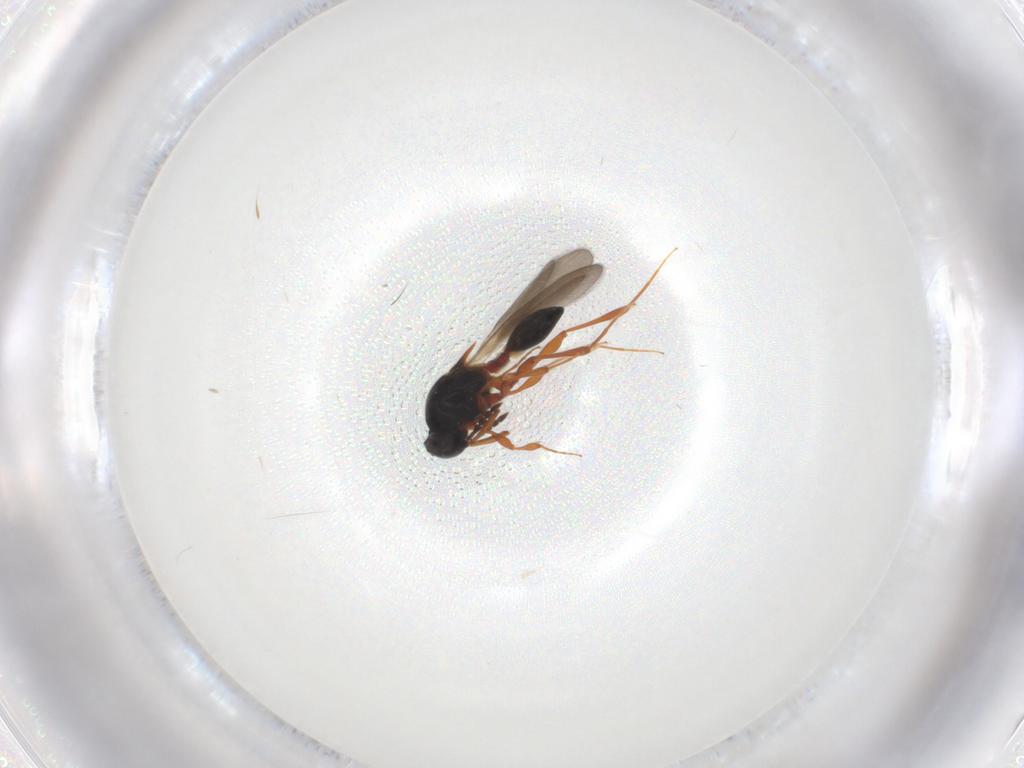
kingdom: Animalia
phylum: Arthropoda
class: Insecta
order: Hymenoptera
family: Platygastridae
